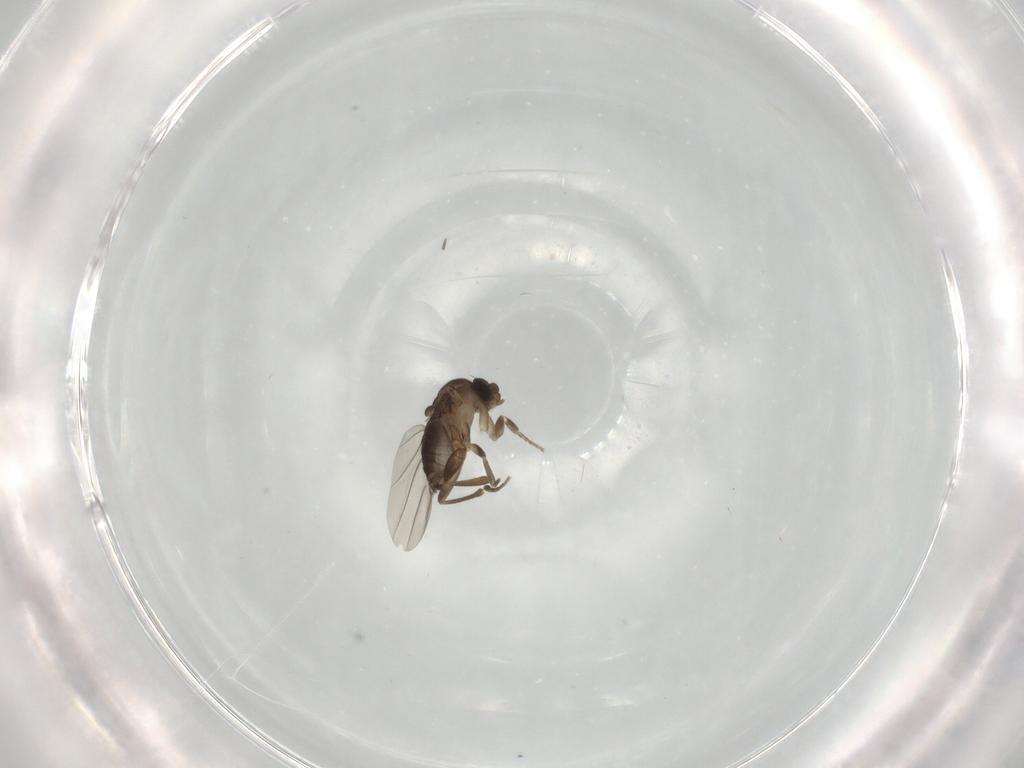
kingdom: Animalia
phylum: Arthropoda
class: Insecta
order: Diptera
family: Phoridae
